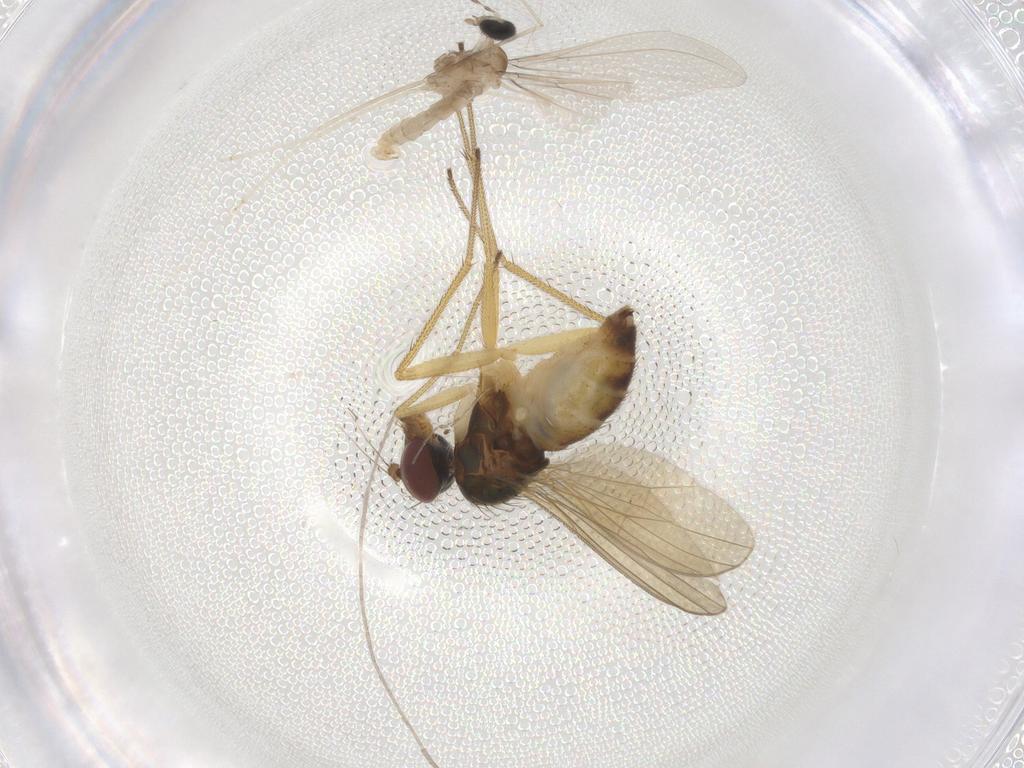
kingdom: Animalia
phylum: Arthropoda
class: Insecta
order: Diptera
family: Dolichopodidae
